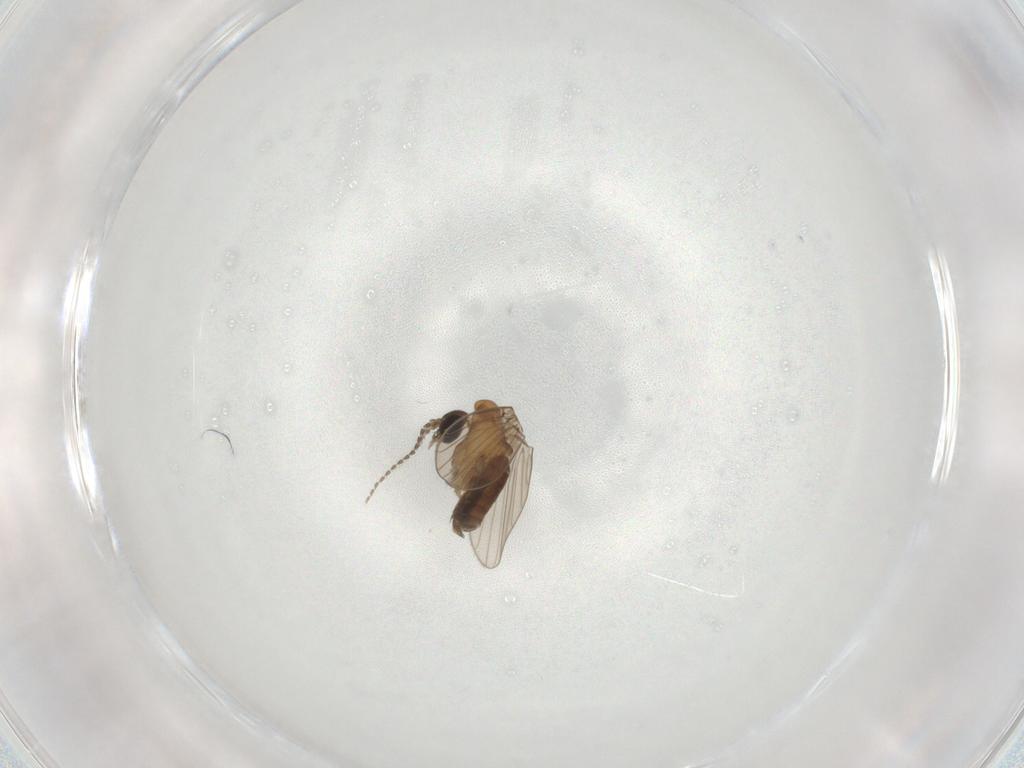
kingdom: Animalia
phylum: Arthropoda
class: Insecta
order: Diptera
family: Psychodidae
